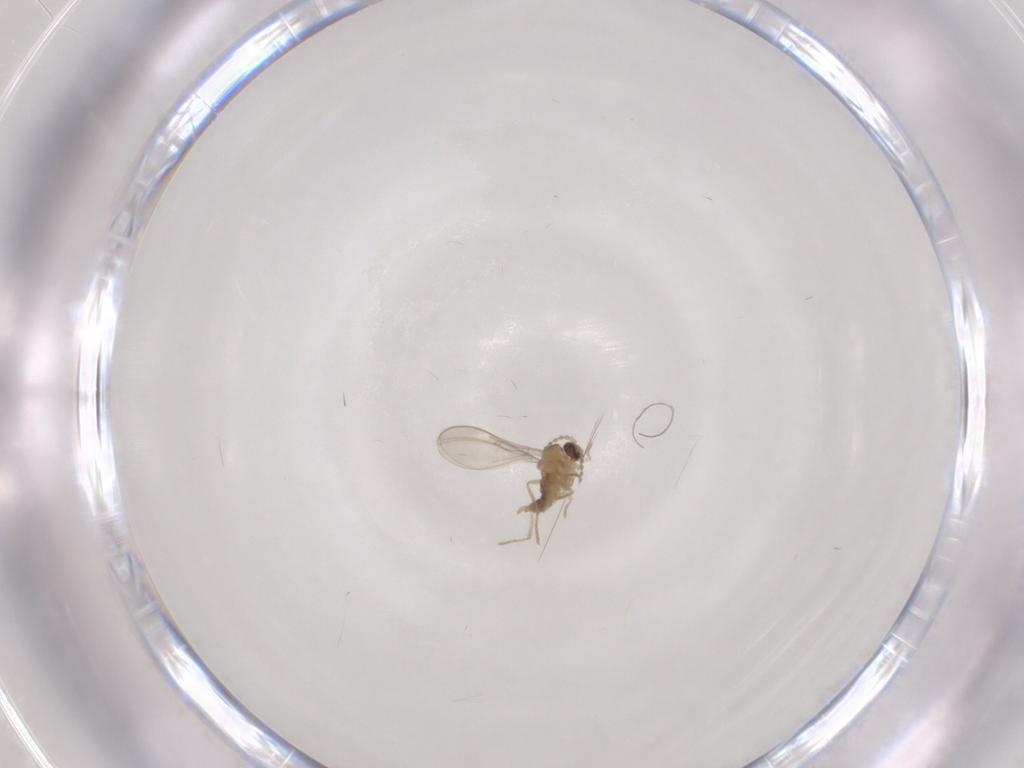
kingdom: Animalia
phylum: Arthropoda
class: Insecta
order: Diptera
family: Cecidomyiidae
